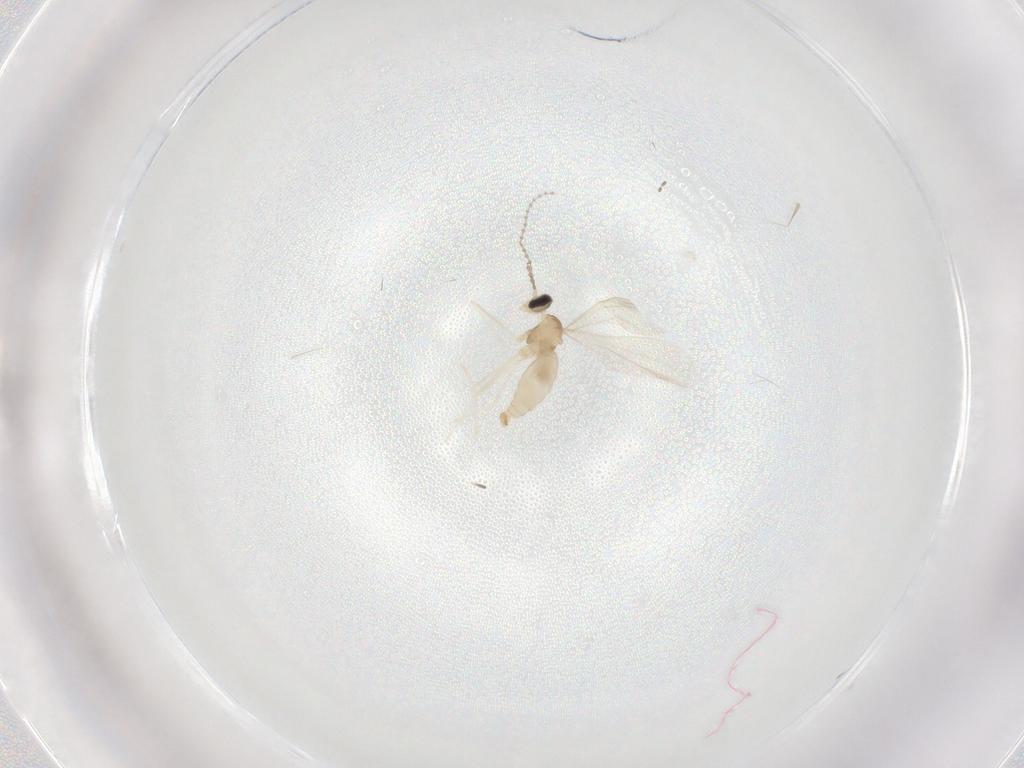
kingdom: Animalia
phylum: Arthropoda
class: Insecta
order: Diptera
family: Cecidomyiidae
